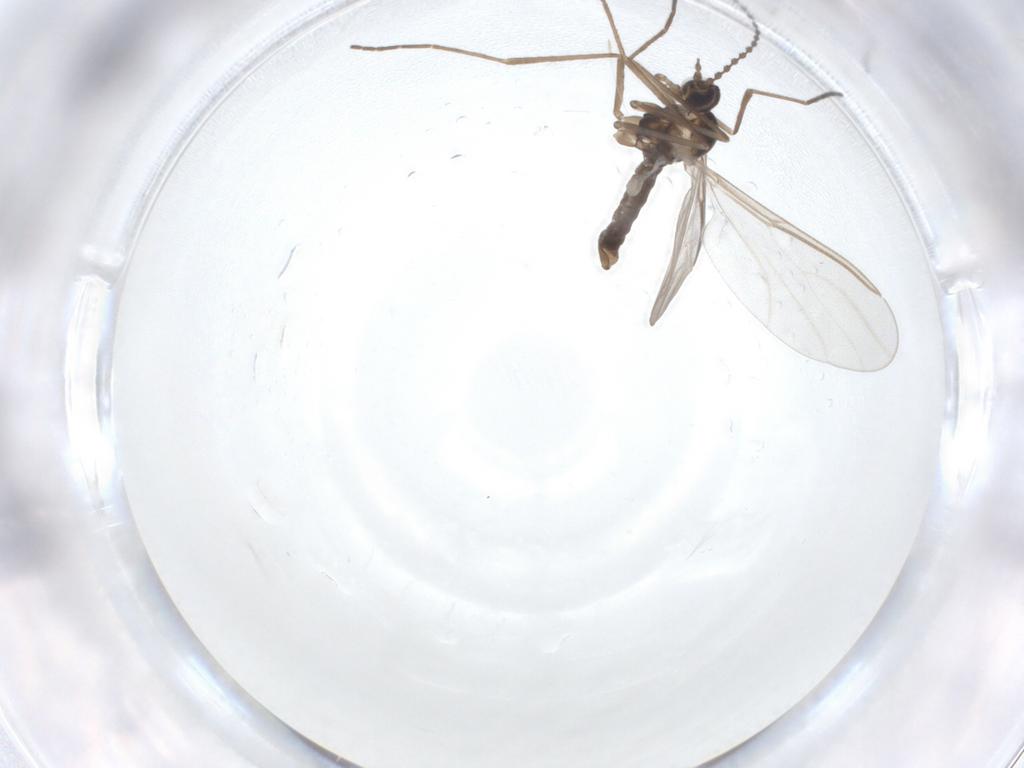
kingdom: Animalia
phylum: Arthropoda
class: Insecta
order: Diptera
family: Cecidomyiidae
